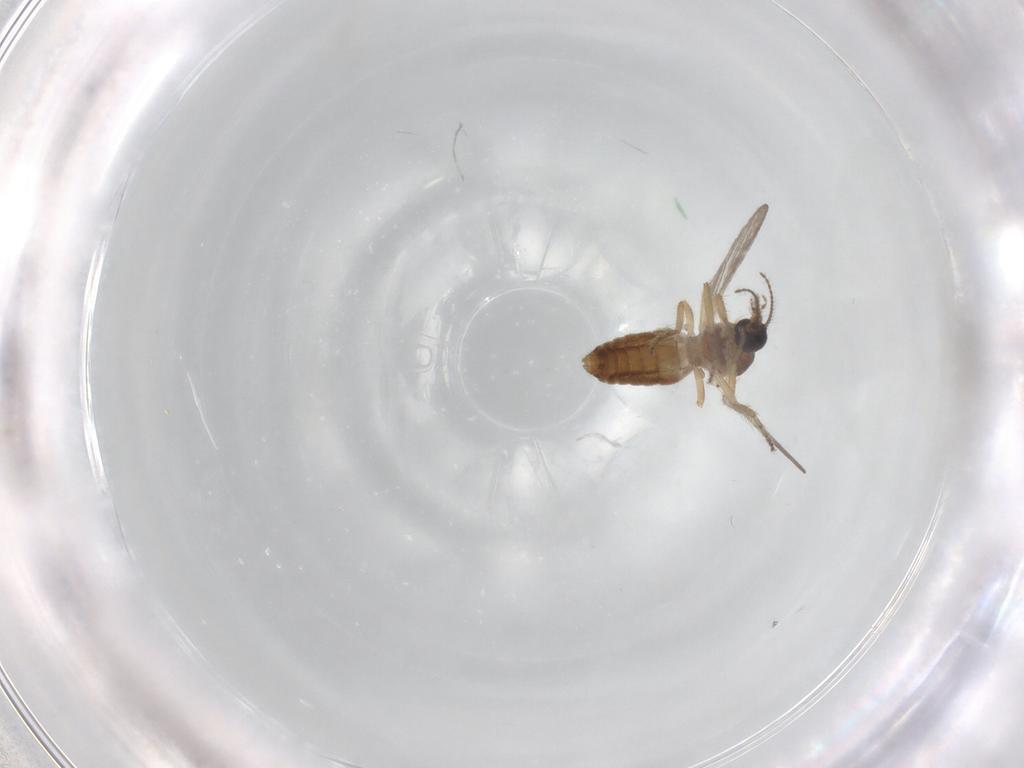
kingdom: Animalia
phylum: Arthropoda
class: Insecta
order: Diptera
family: Ceratopogonidae
